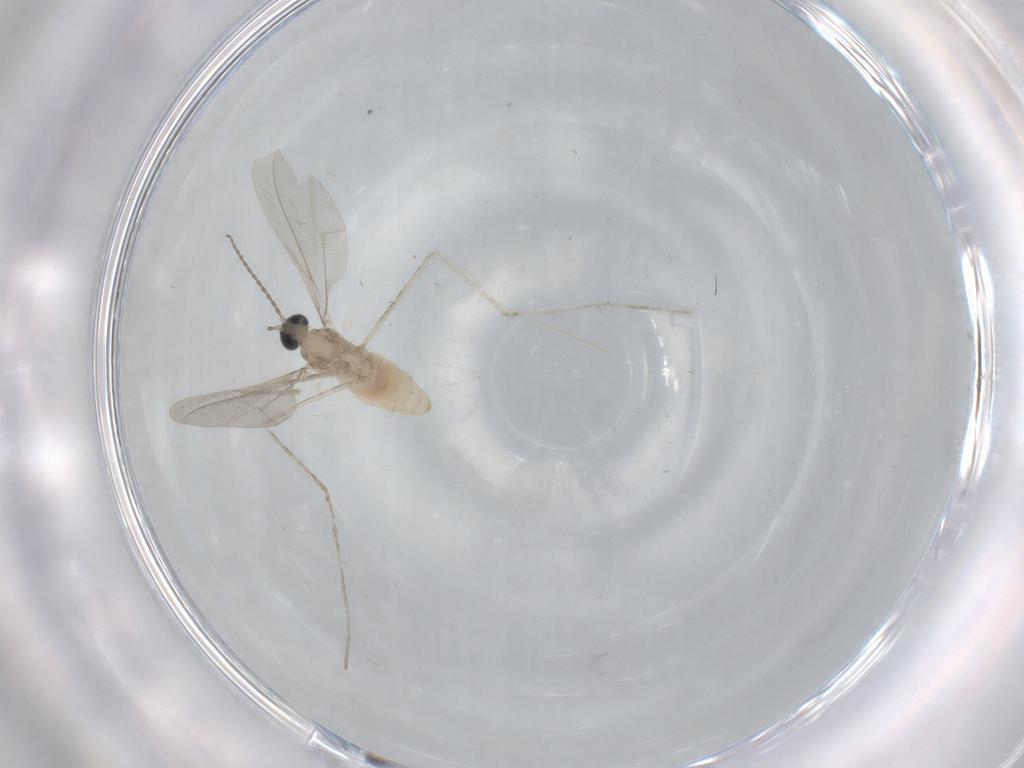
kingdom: Animalia
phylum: Arthropoda
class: Insecta
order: Diptera
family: Cecidomyiidae
